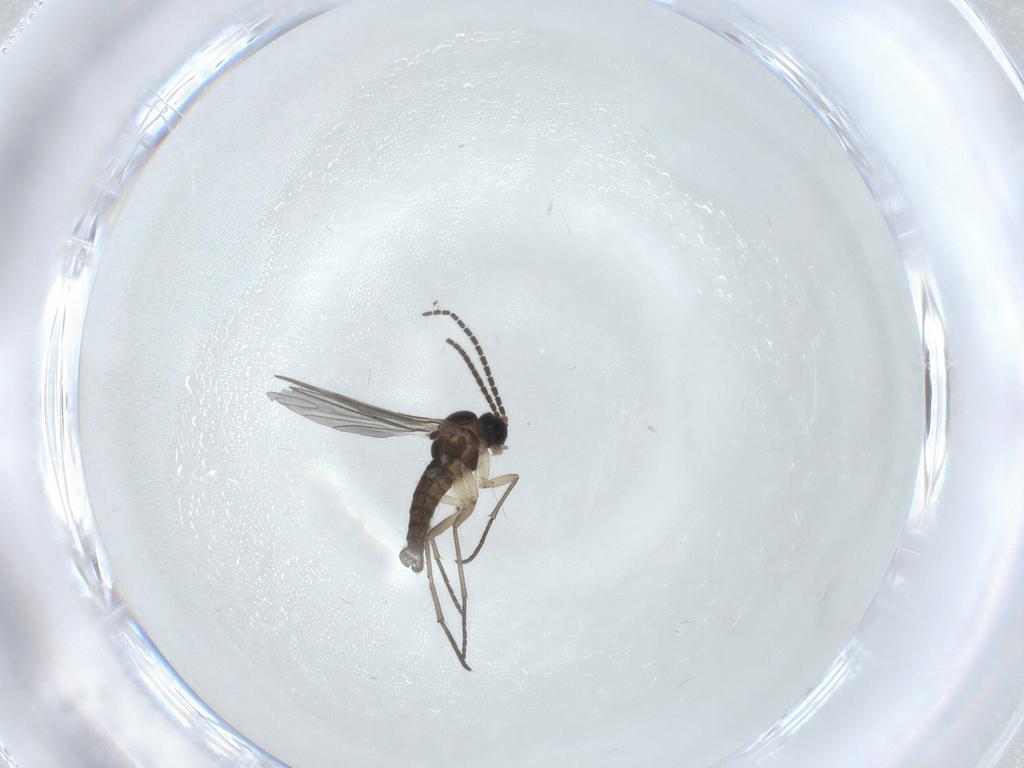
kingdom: Animalia
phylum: Arthropoda
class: Insecta
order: Diptera
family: Sciaridae
